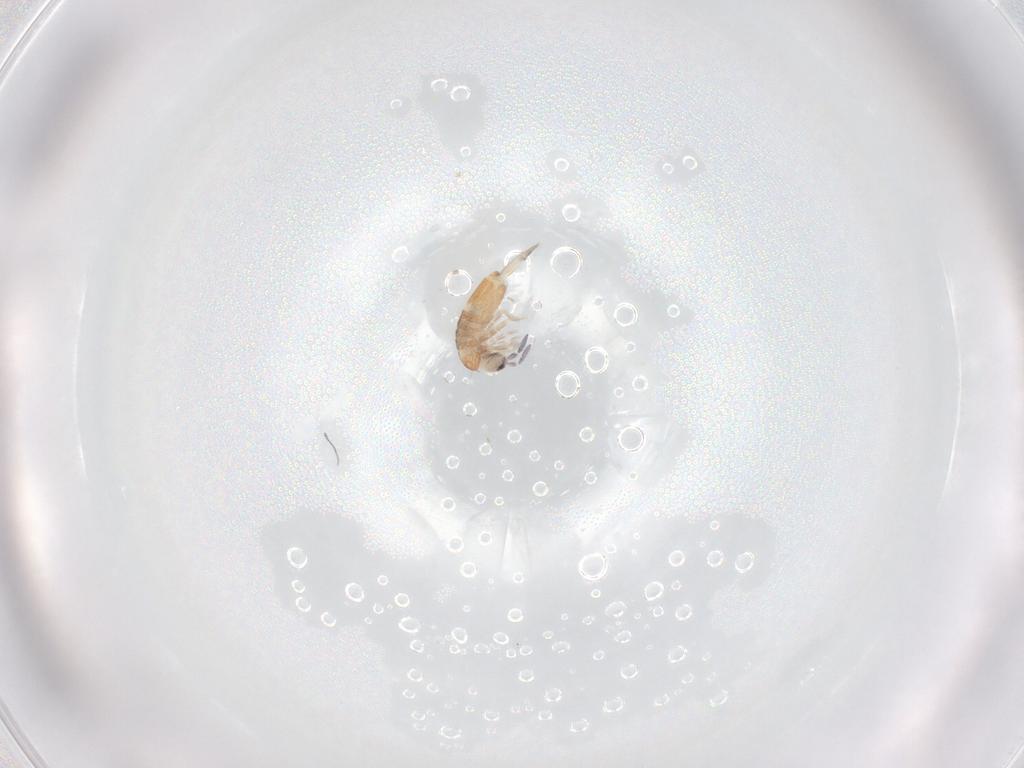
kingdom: Animalia
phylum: Arthropoda
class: Collembola
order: Entomobryomorpha
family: Entomobryidae
